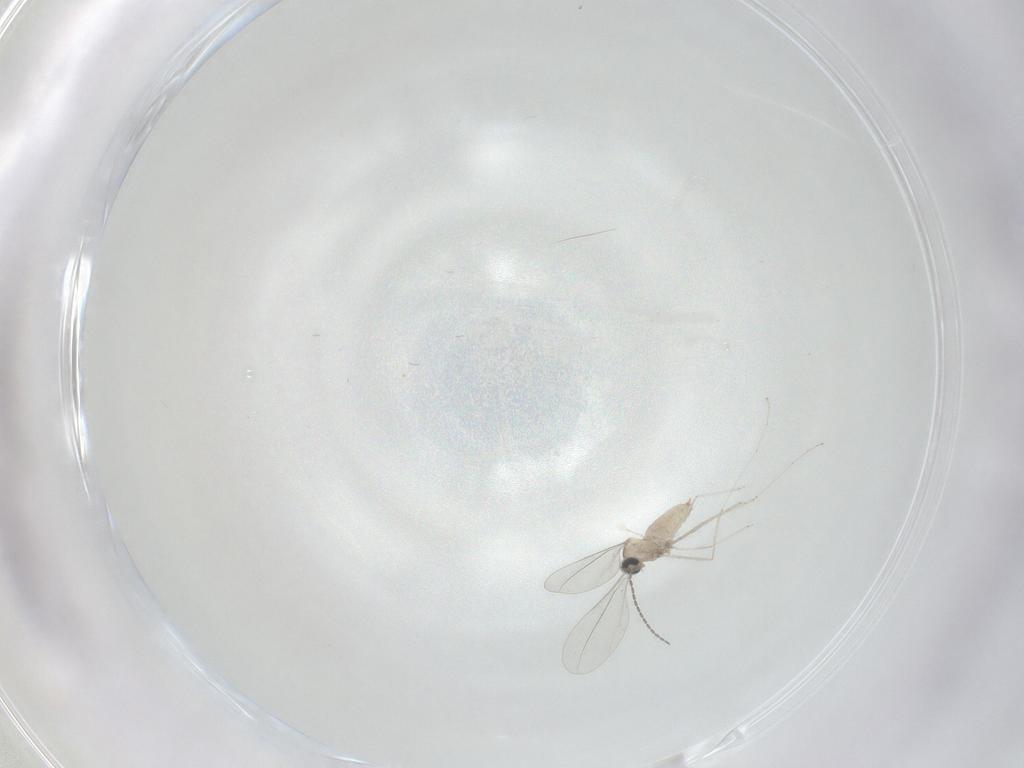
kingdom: Animalia
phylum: Arthropoda
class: Insecta
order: Diptera
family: Cecidomyiidae
